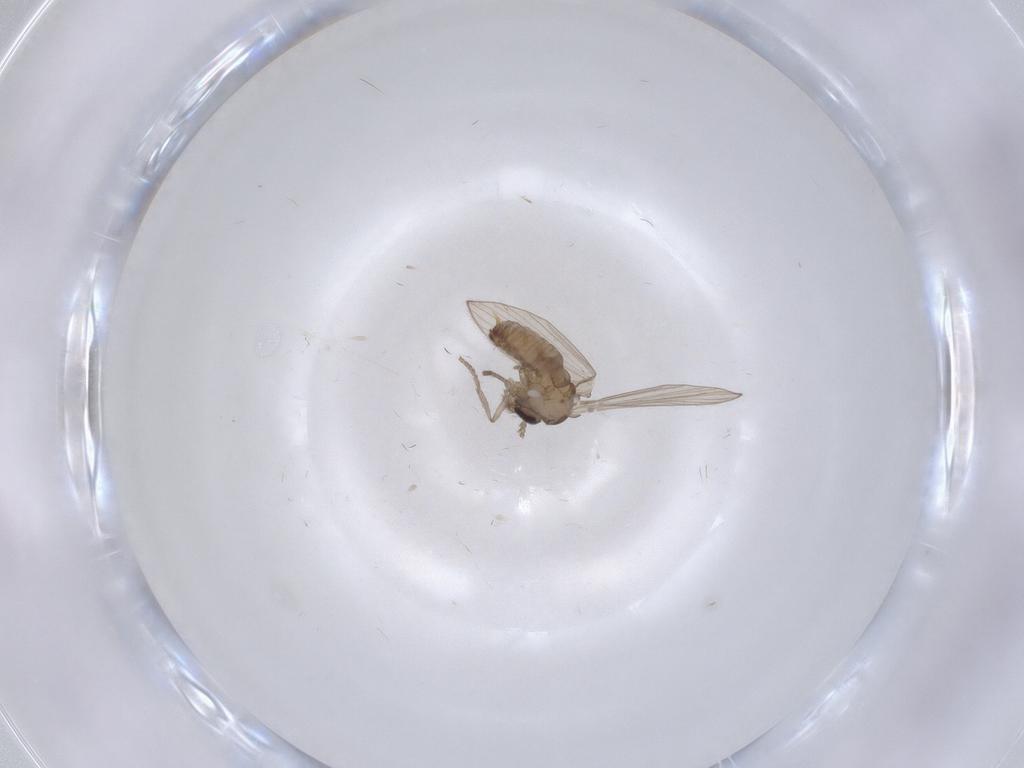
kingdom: Animalia
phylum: Arthropoda
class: Insecta
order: Diptera
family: Psychodidae
